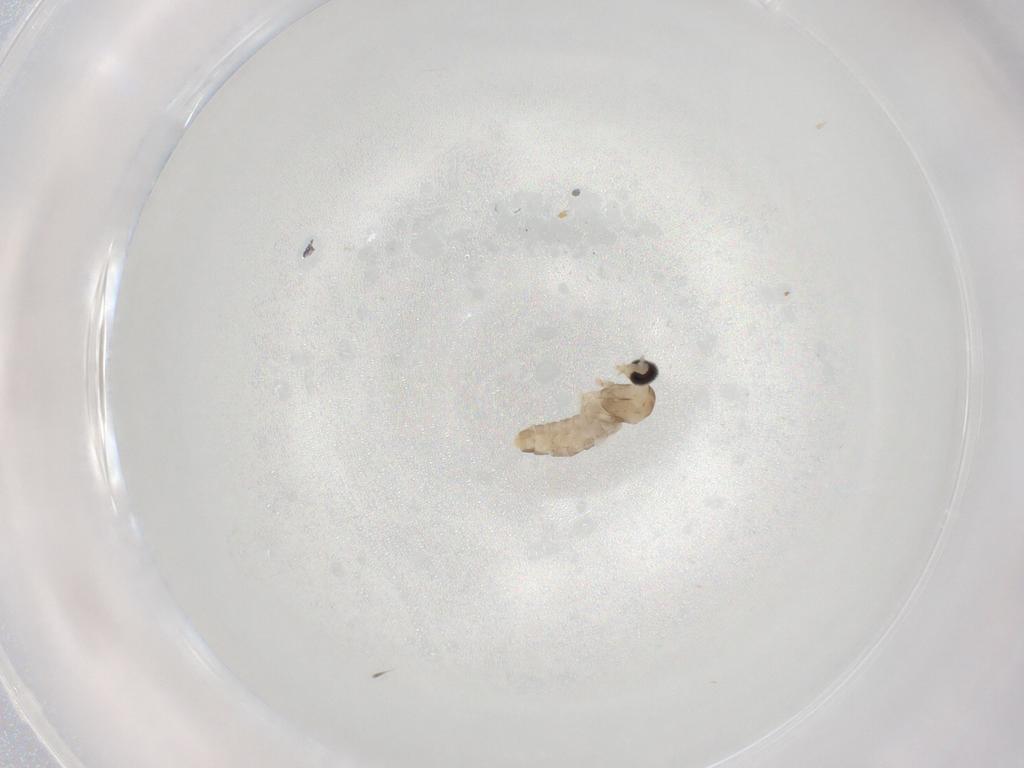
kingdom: Animalia
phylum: Arthropoda
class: Insecta
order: Diptera
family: Cecidomyiidae
